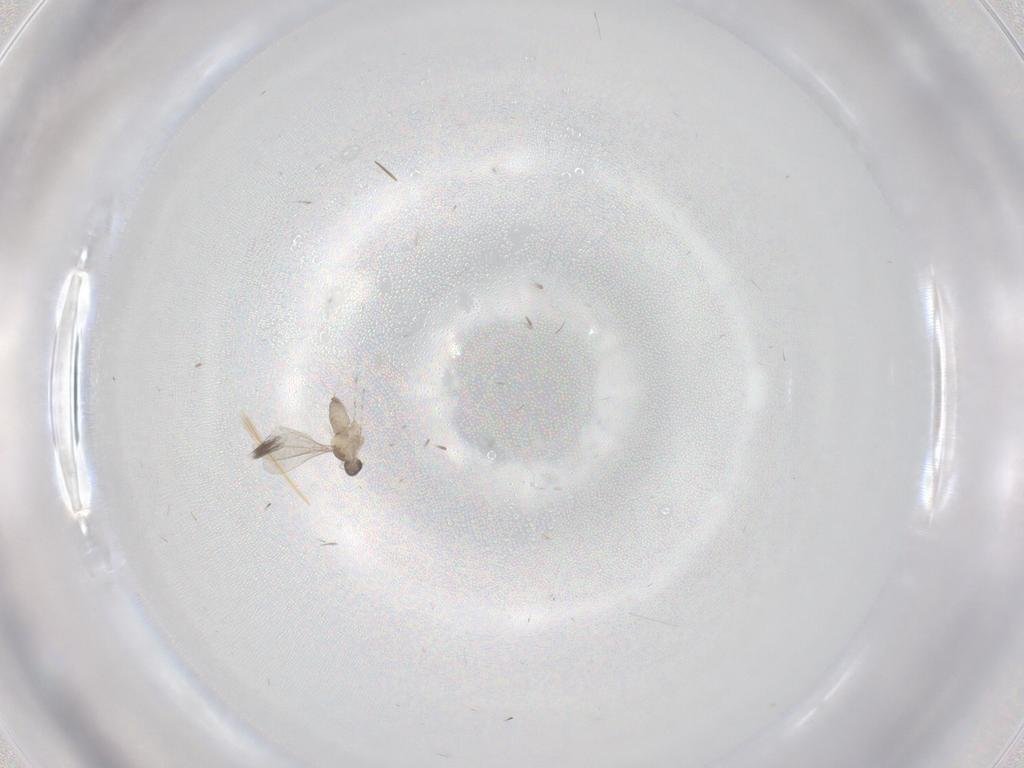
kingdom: Animalia
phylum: Arthropoda
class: Insecta
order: Diptera
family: Cecidomyiidae
